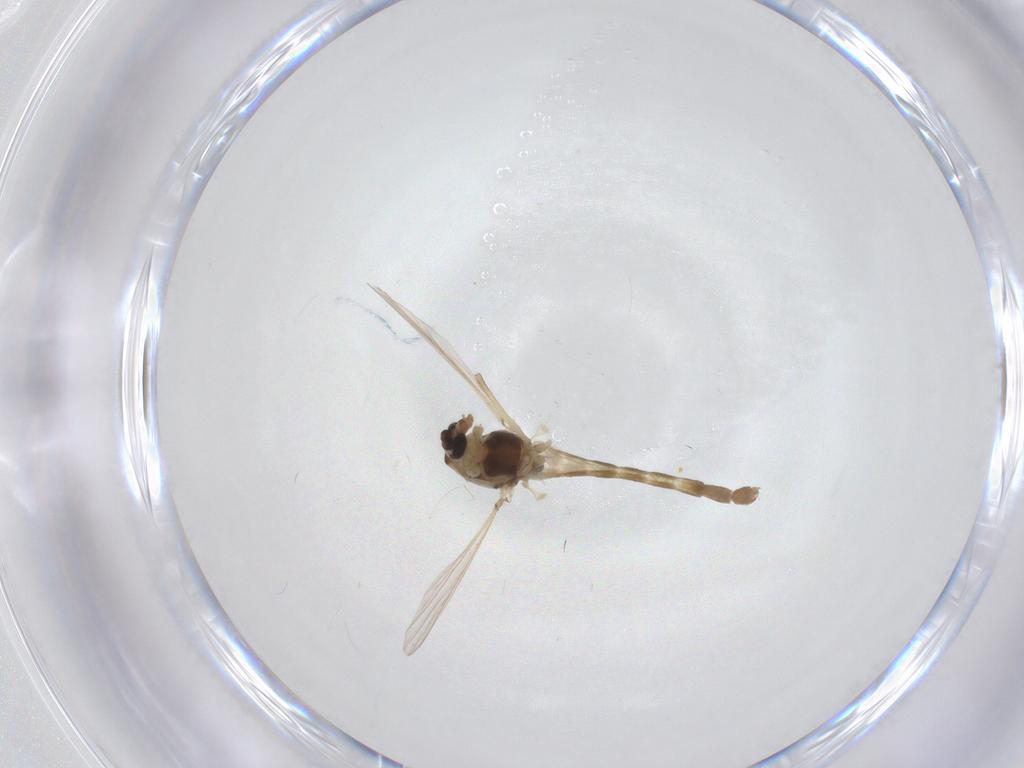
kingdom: Animalia
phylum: Arthropoda
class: Insecta
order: Diptera
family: Chironomidae
